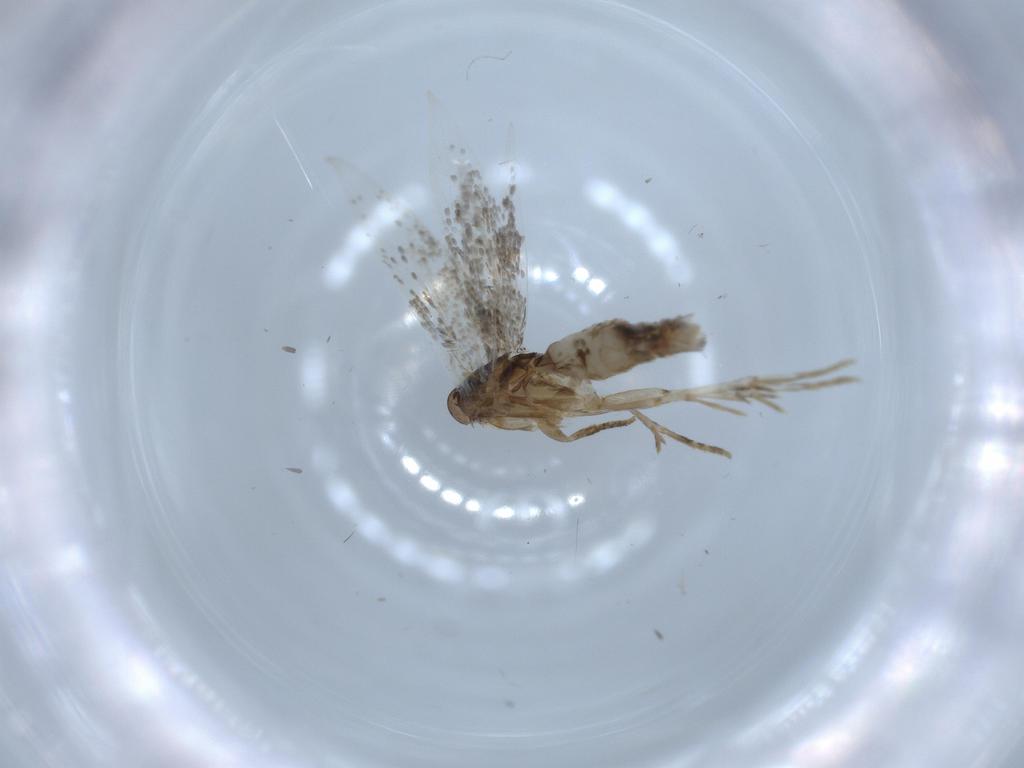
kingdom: Animalia
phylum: Arthropoda
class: Insecta
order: Lepidoptera
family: Gelechiidae
